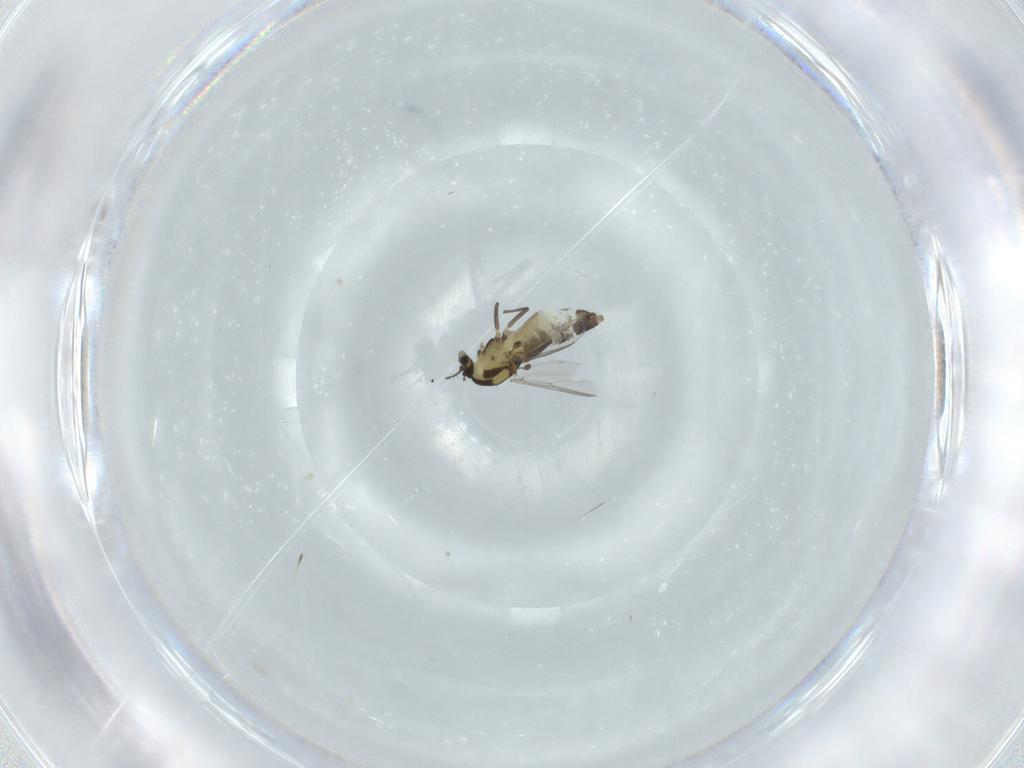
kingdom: Animalia
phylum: Arthropoda
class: Insecta
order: Diptera
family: Chironomidae
